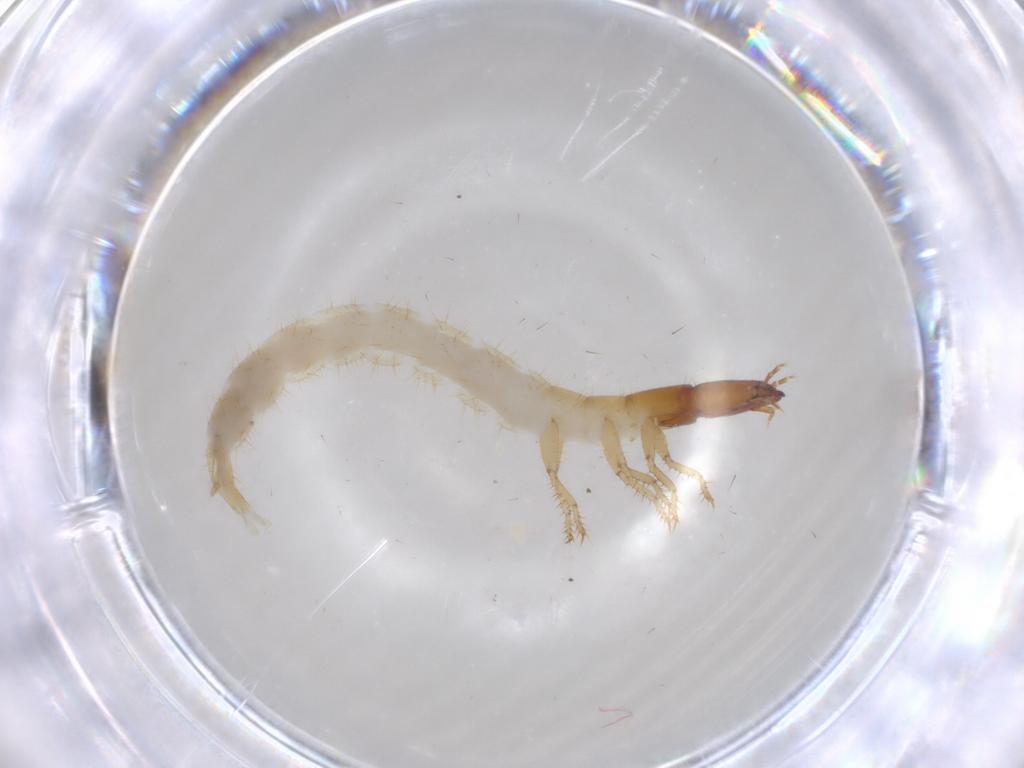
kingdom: Animalia
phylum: Arthropoda
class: Insecta
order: Coleoptera
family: Staphylinidae
